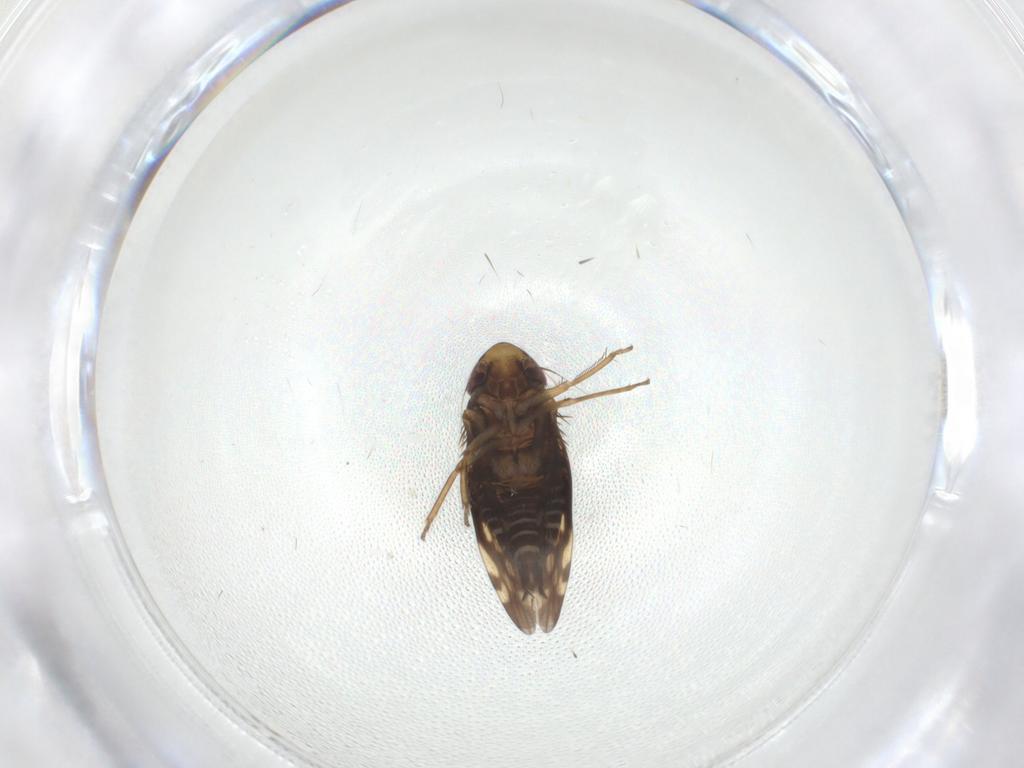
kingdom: Animalia
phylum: Arthropoda
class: Insecta
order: Hemiptera
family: Cicadellidae
